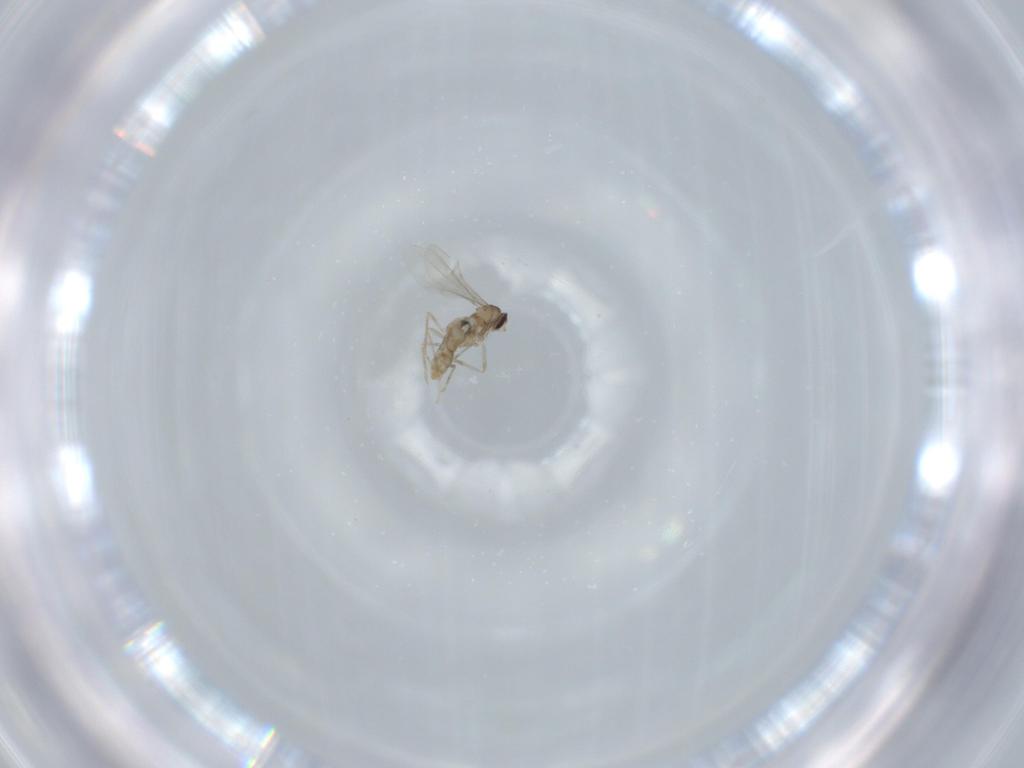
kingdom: Animalia
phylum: Arthropoda
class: Insecta
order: Diptera
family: Cecidomyiidae
